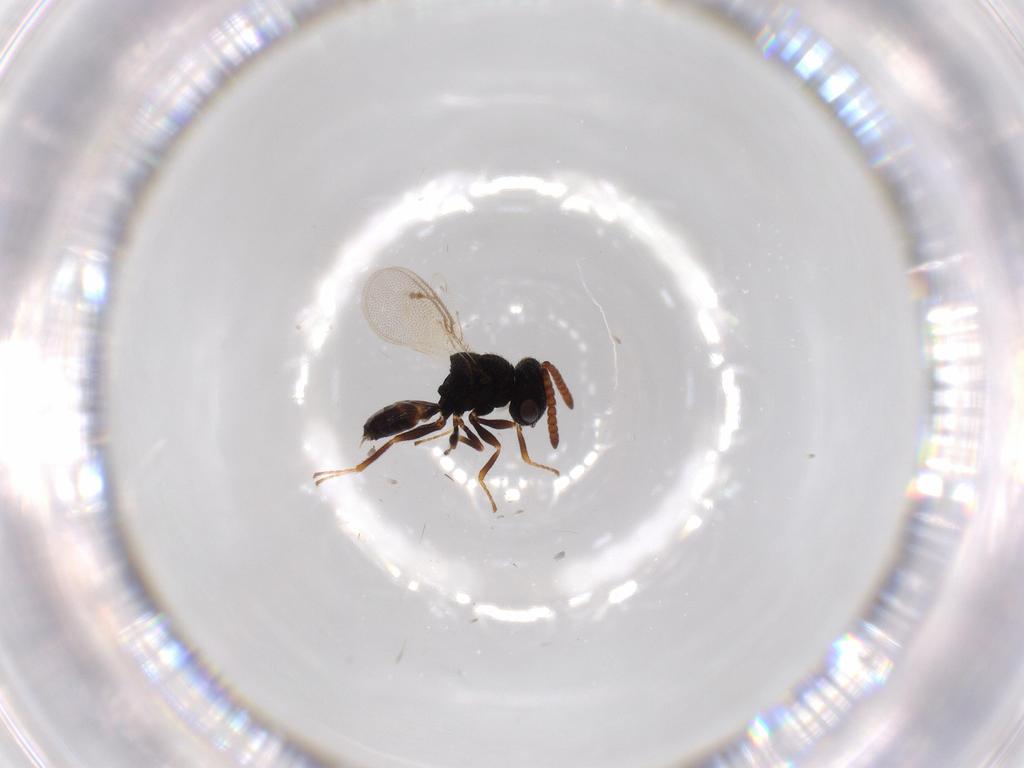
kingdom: Animalia
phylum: Arthropoda
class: Insecta
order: Hymenoptera
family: Pteromalidae
